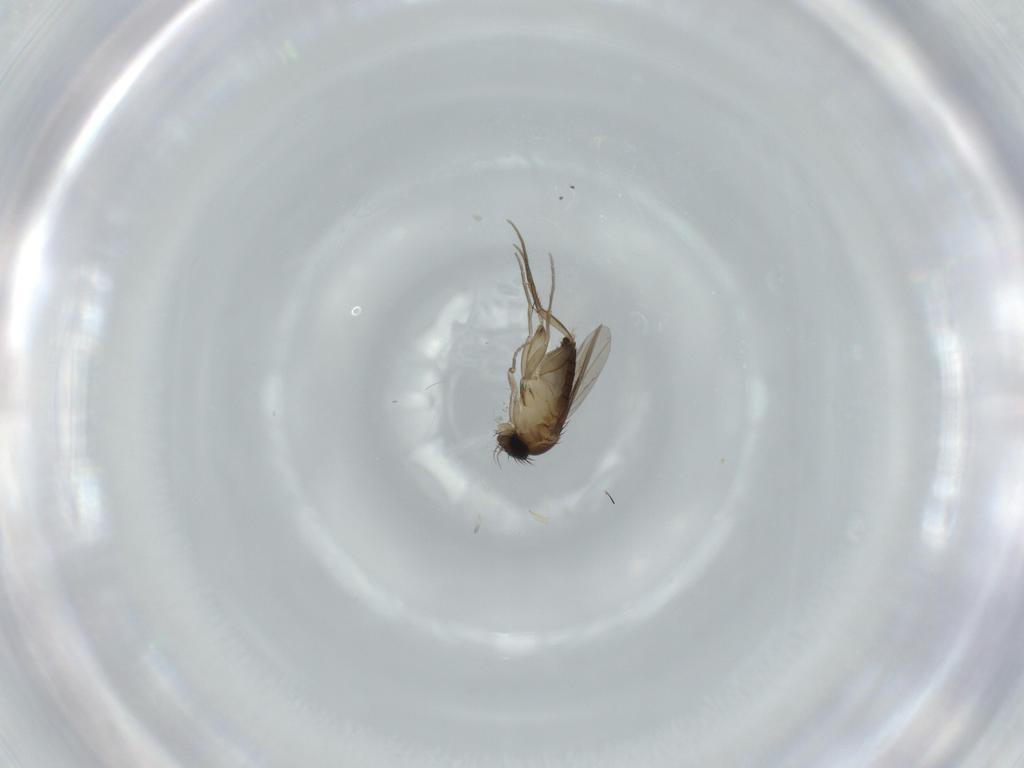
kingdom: Animalia
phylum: Arthropoda
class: Insecta
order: Diptera
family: Phoridae
